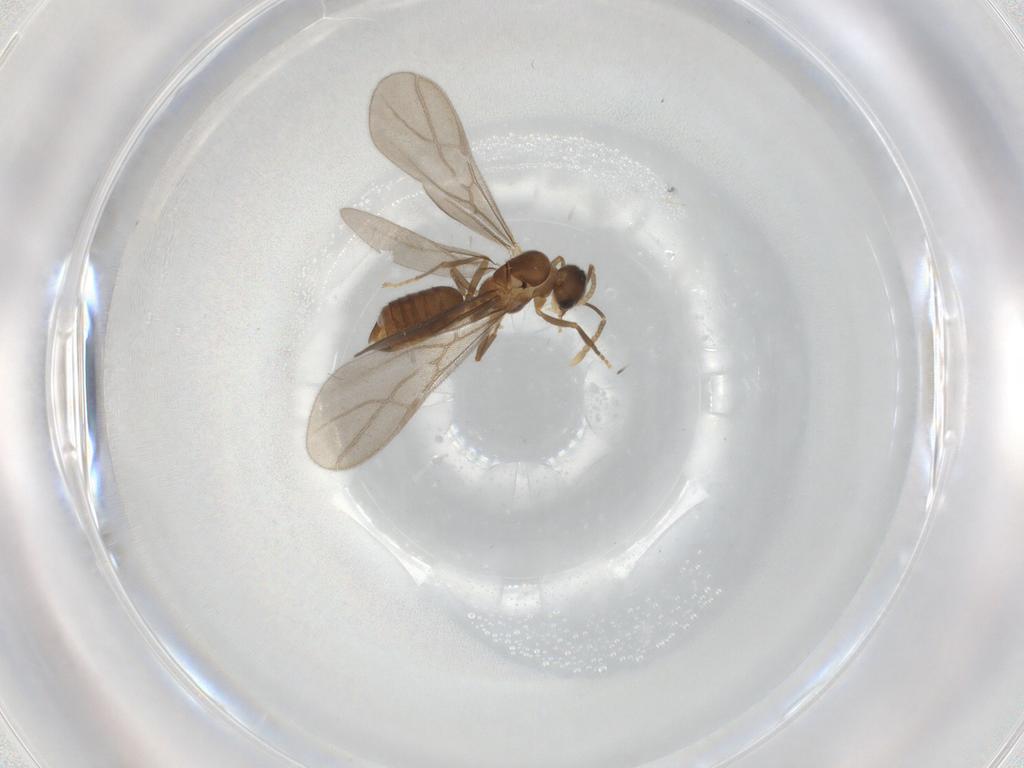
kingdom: Animalia
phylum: Arthropoda
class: Insecta
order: Hymenoptera
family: Formicidae
